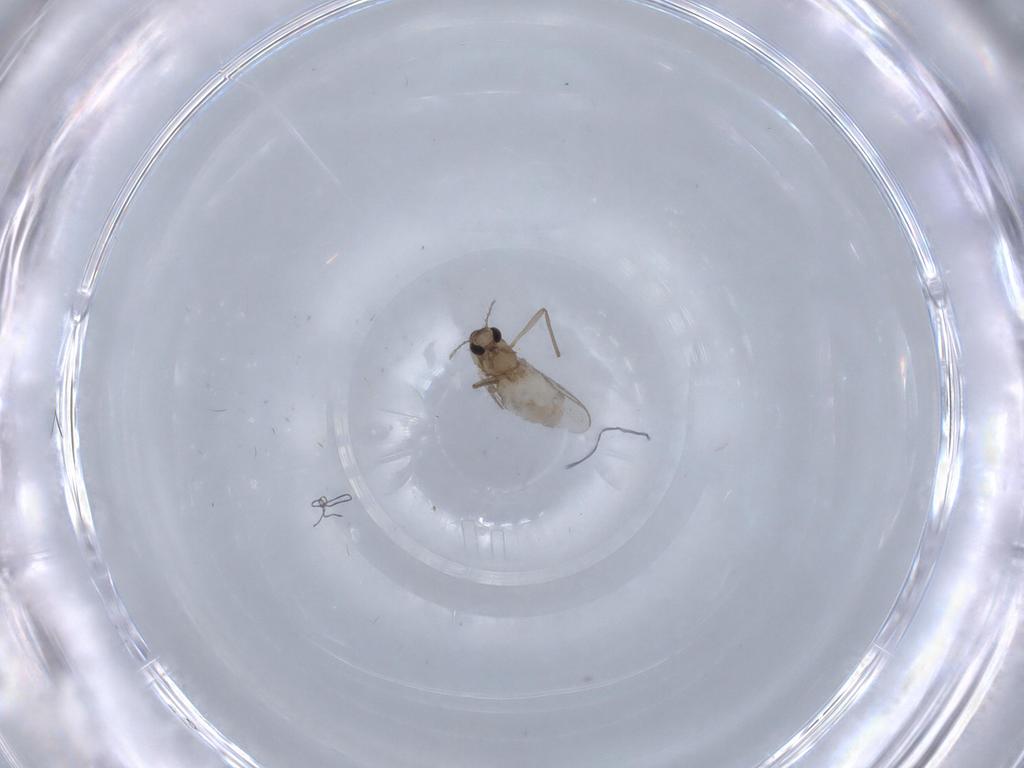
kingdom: Animalia
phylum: Arthropoda
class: Insecta
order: Diptera
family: Chironomidae
